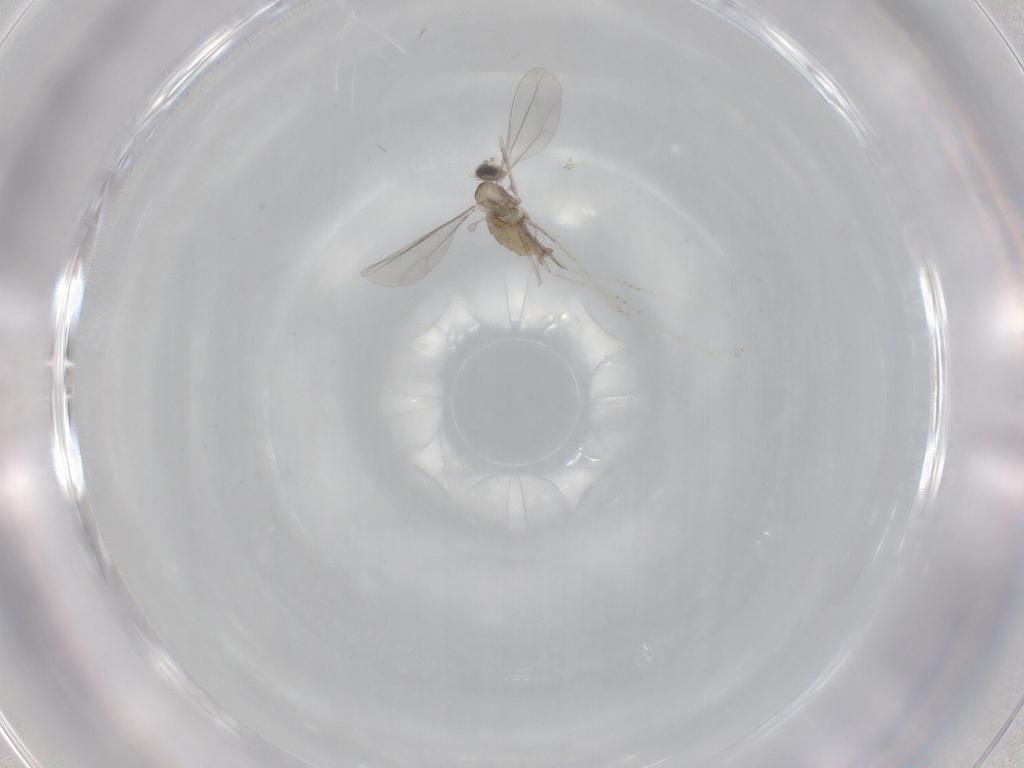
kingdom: Animalia
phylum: Arthropoda
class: Insecta
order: Diptera
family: Cecidomyiidae
